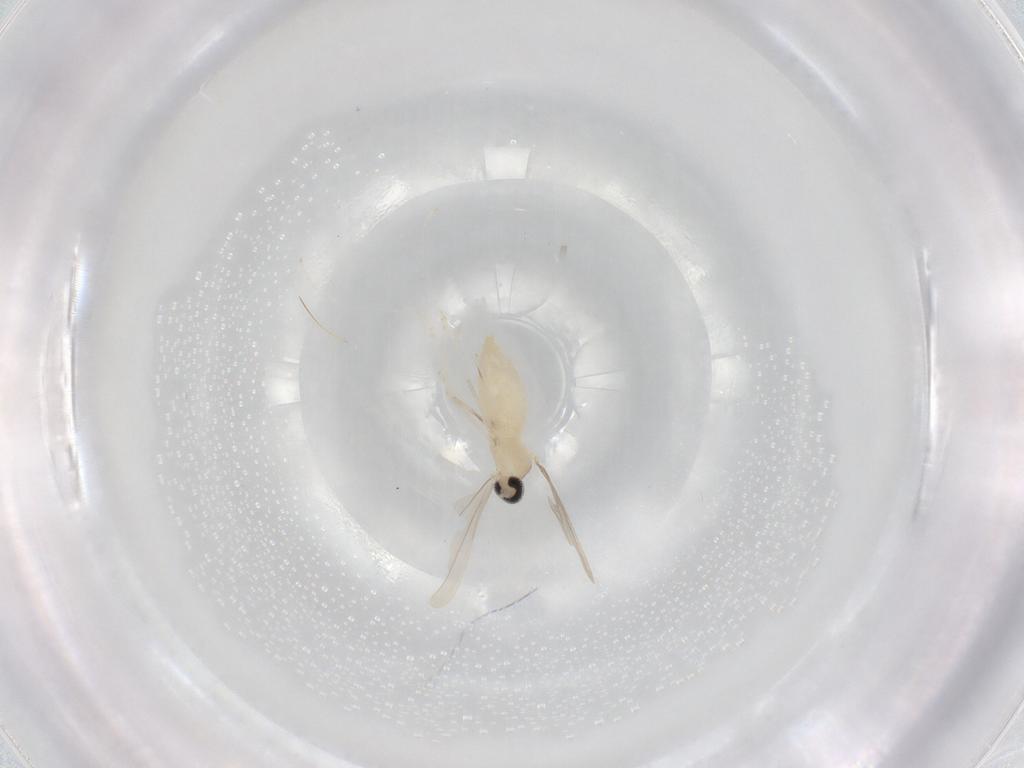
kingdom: Animalia
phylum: Arthropoda
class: Insecta
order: Diptera
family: Cecidomyiidae
